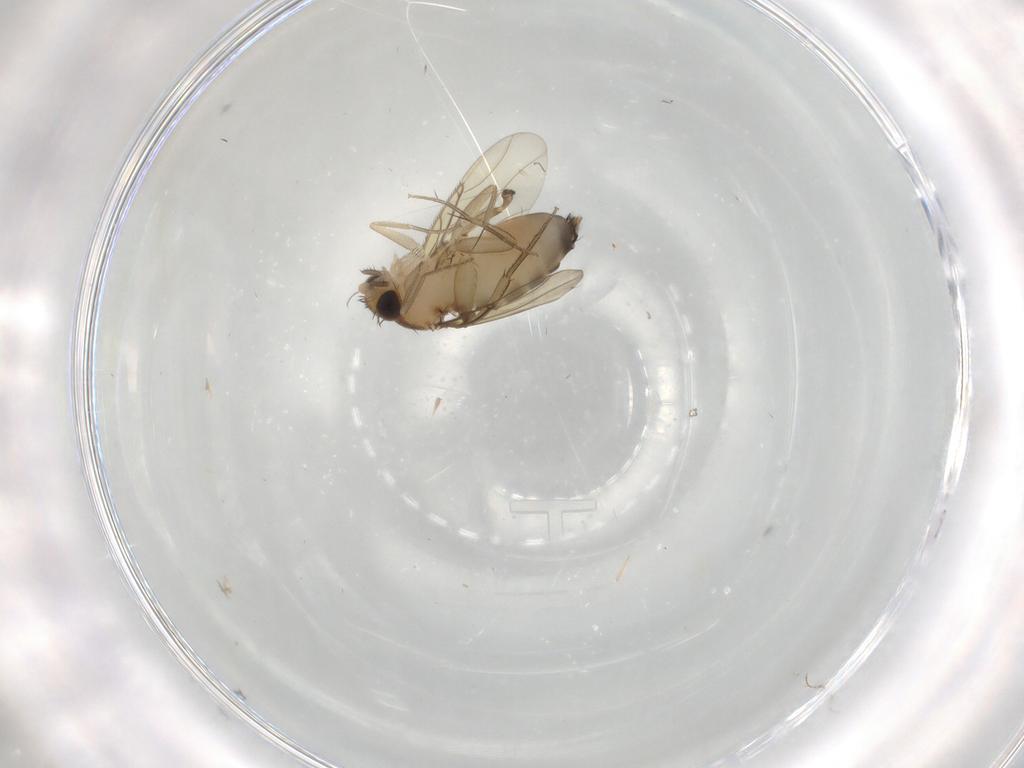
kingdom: Animalia
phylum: Arthropoda
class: Insecta
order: Diptera
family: Phoridae
